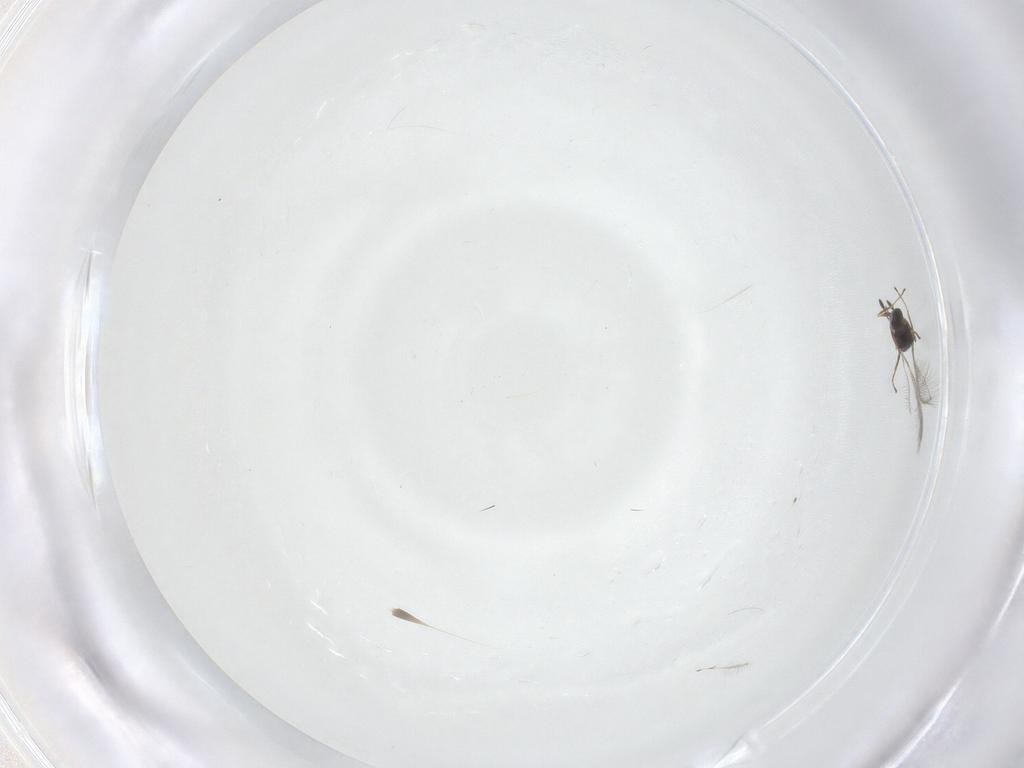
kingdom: Animalia
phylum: Arthropoda
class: Insecta
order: Hymenoptera
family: Mymaridae
